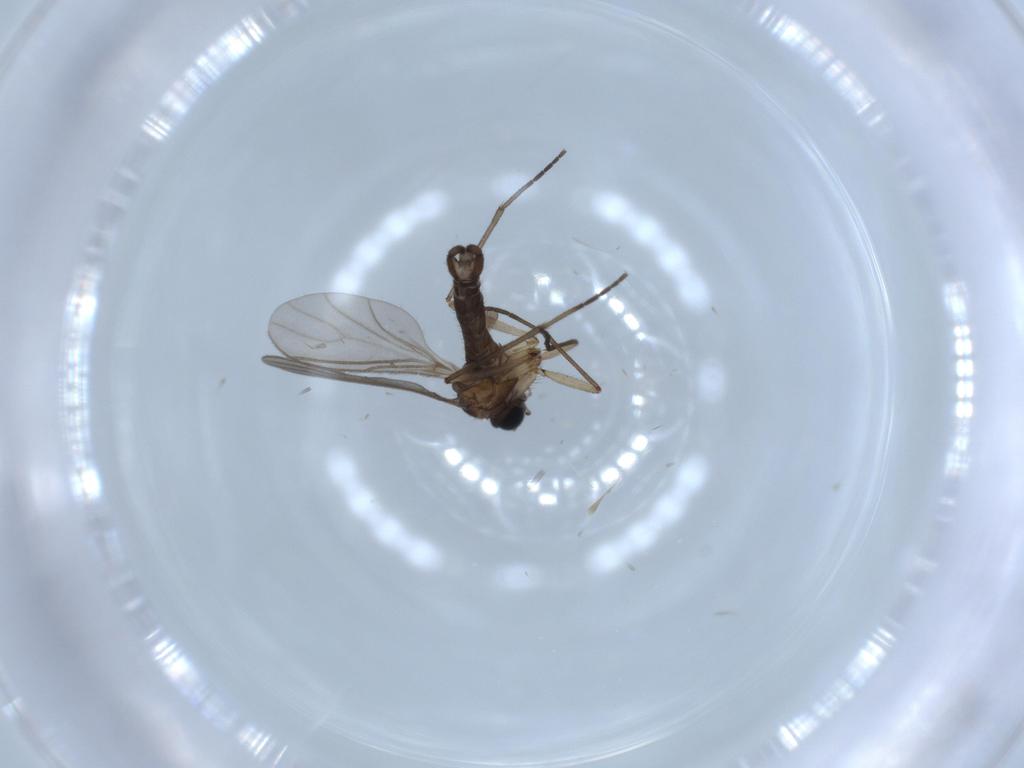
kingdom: Animalia
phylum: Arthropoda
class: Insecta
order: Diptera
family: Sciaridae
